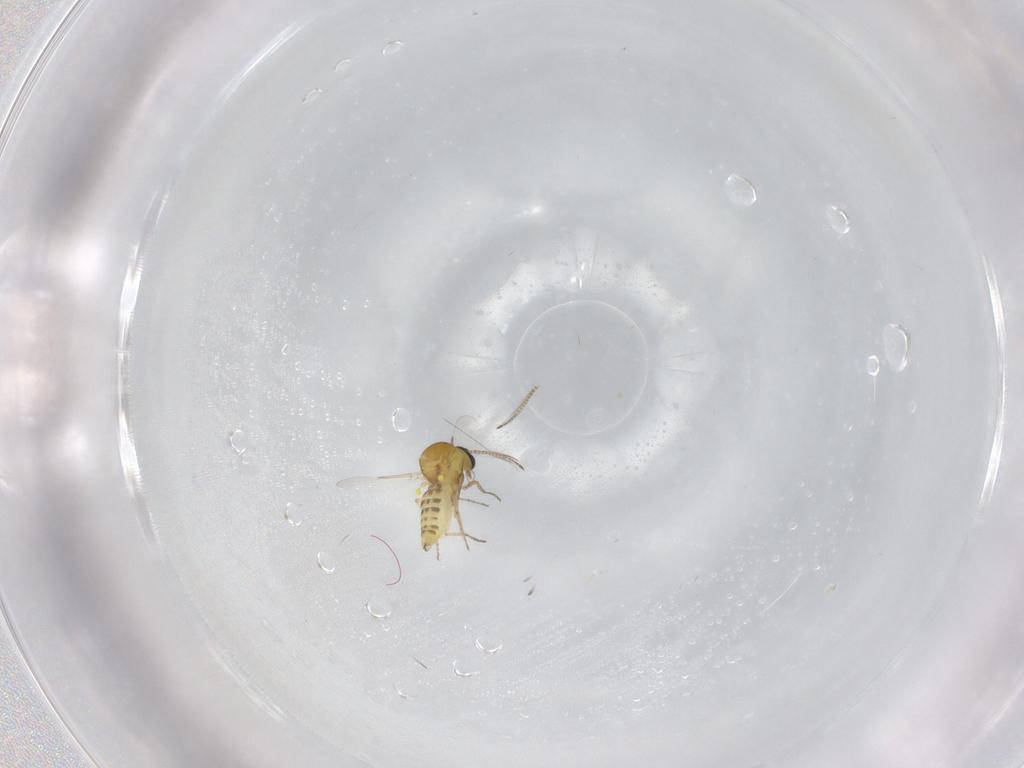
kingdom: Animalia
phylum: Arthropoda
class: Insecta
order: Diptera
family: Ceratopogonidae
